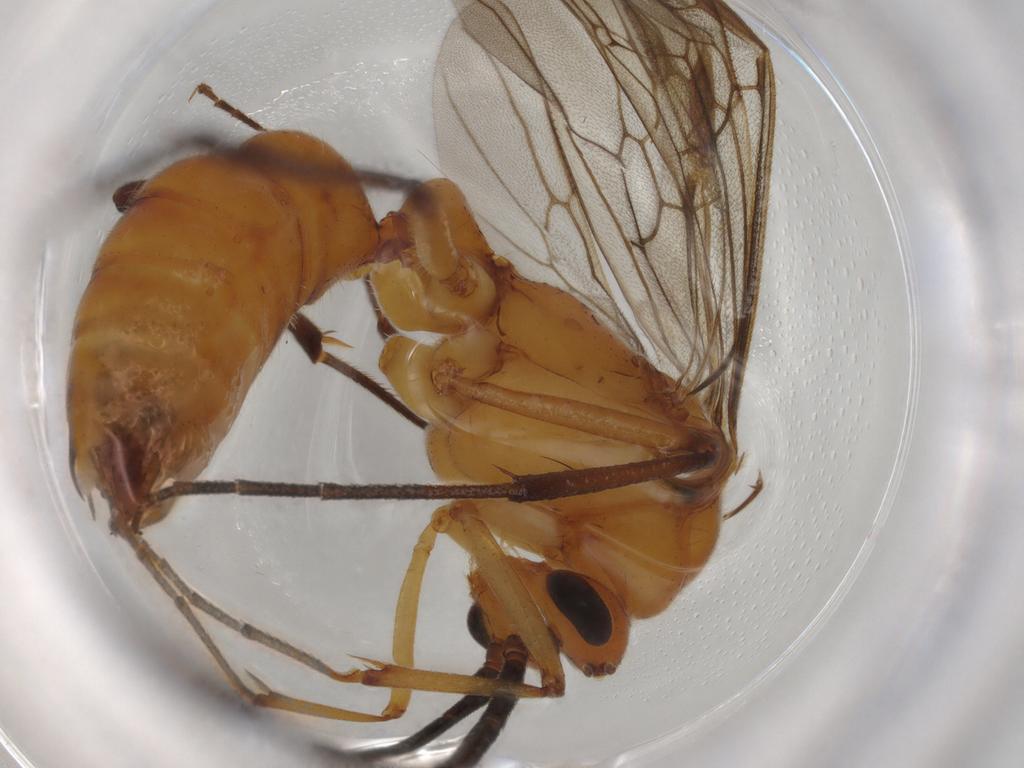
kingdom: Animalia
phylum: Arthropoda
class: Insecta
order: Hymenoptera
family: Formicidae
